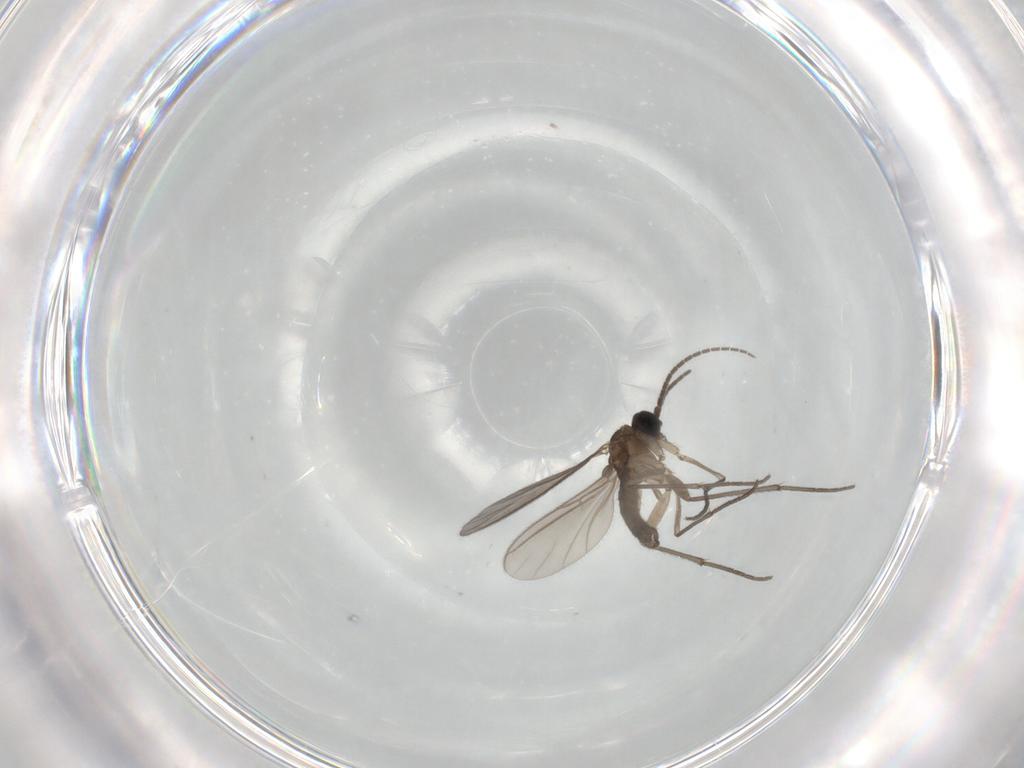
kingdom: Animalia
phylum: Arthropoda
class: Insecta
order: Diptera
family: Sciaridae
